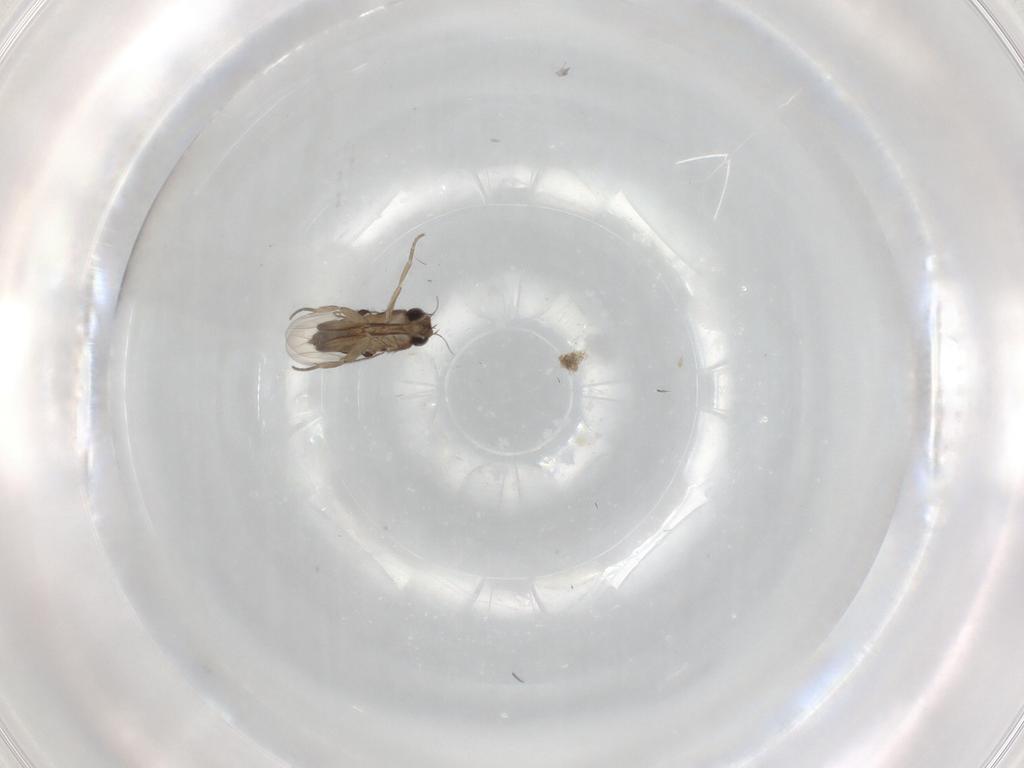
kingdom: Animalia
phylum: Arthropoda
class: Insecta
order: Diptera
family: Phoridae
